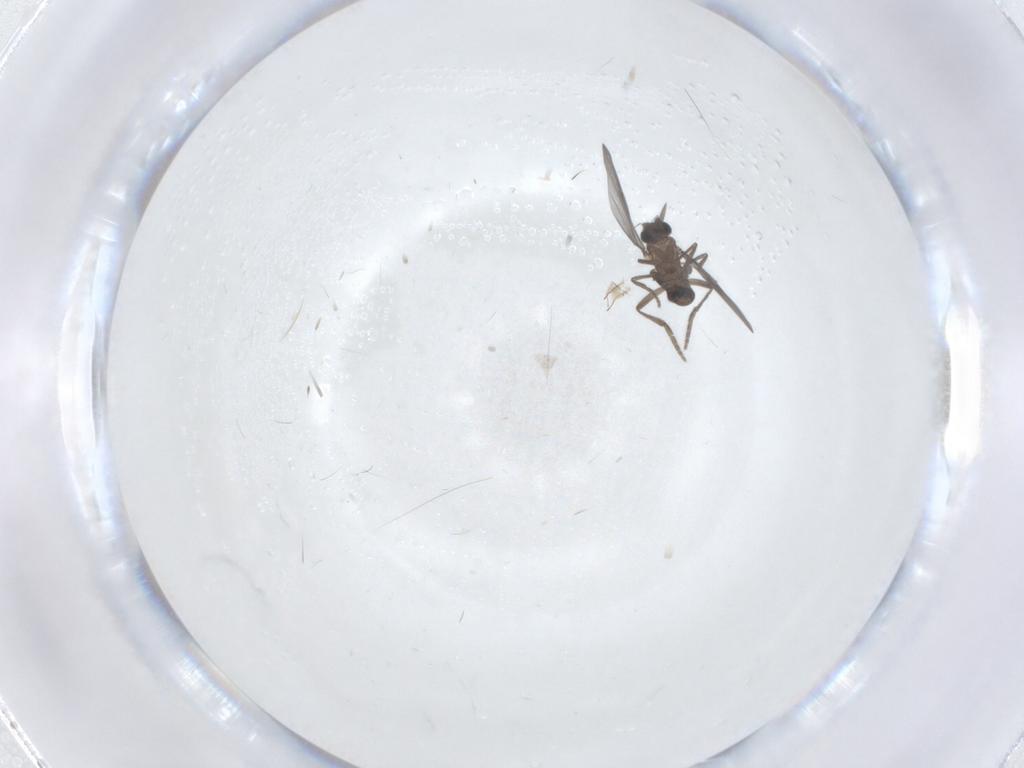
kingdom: Animalia
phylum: Arthropoda
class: Insecta
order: Diptera
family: Phoridae
